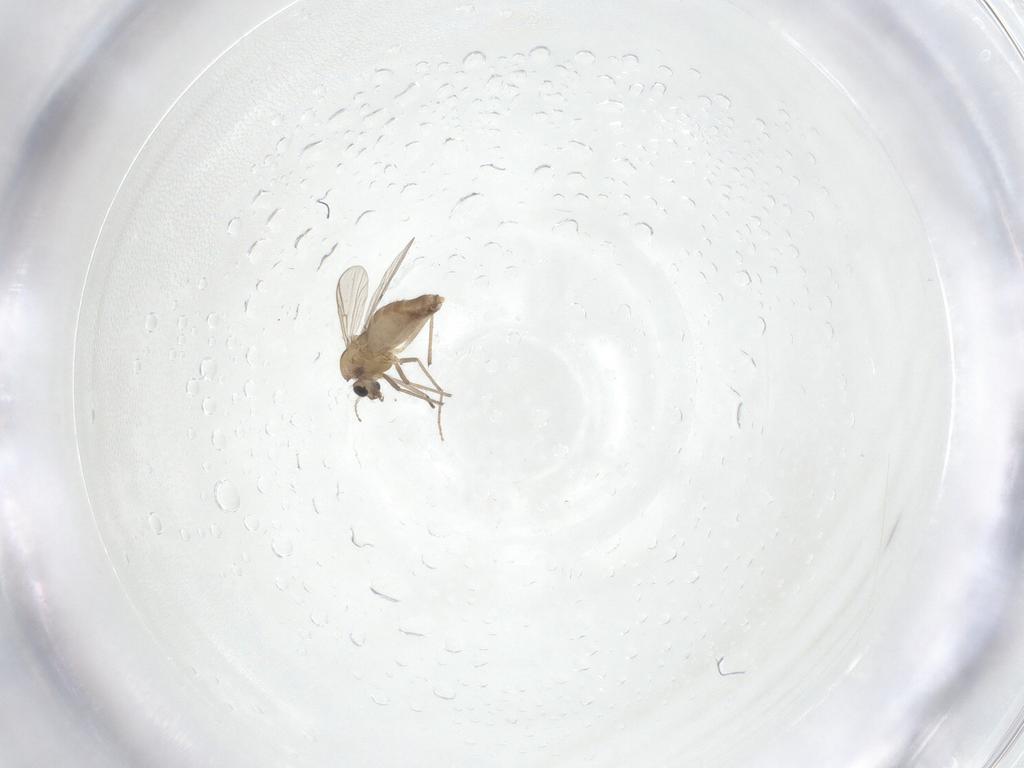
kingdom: Animalia
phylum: Arthropoda
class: Insecta
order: Diptera
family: Chironomidae
